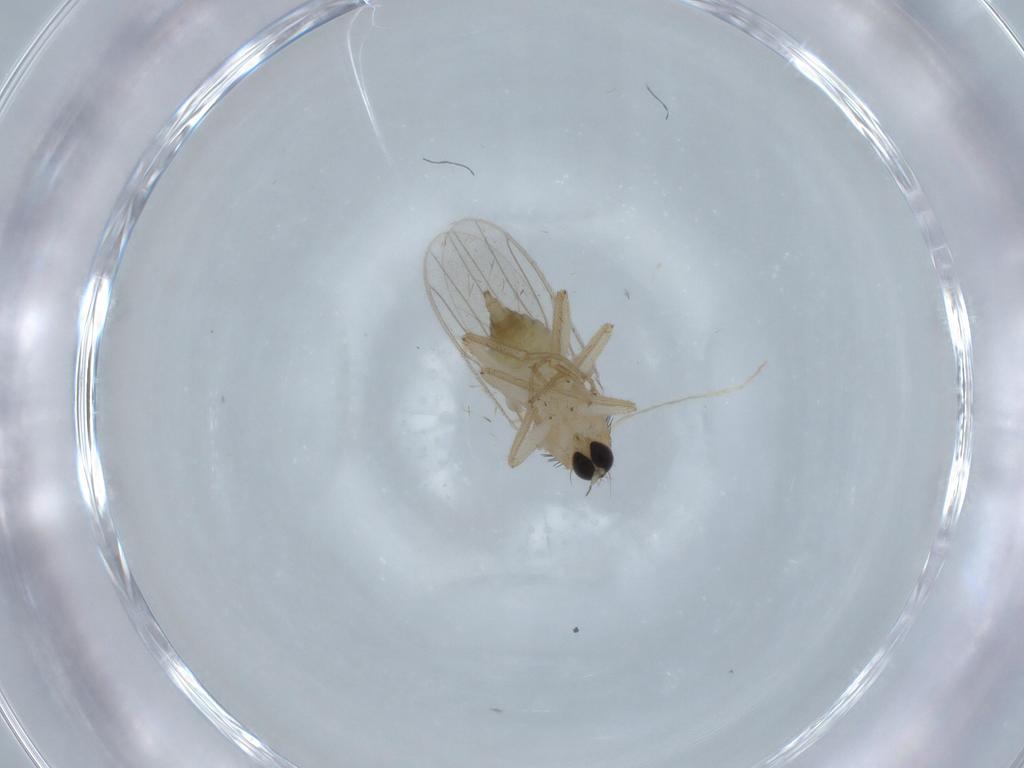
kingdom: Animalia
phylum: Arthropoda
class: Insecta
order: Diptera
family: Hybotidae
